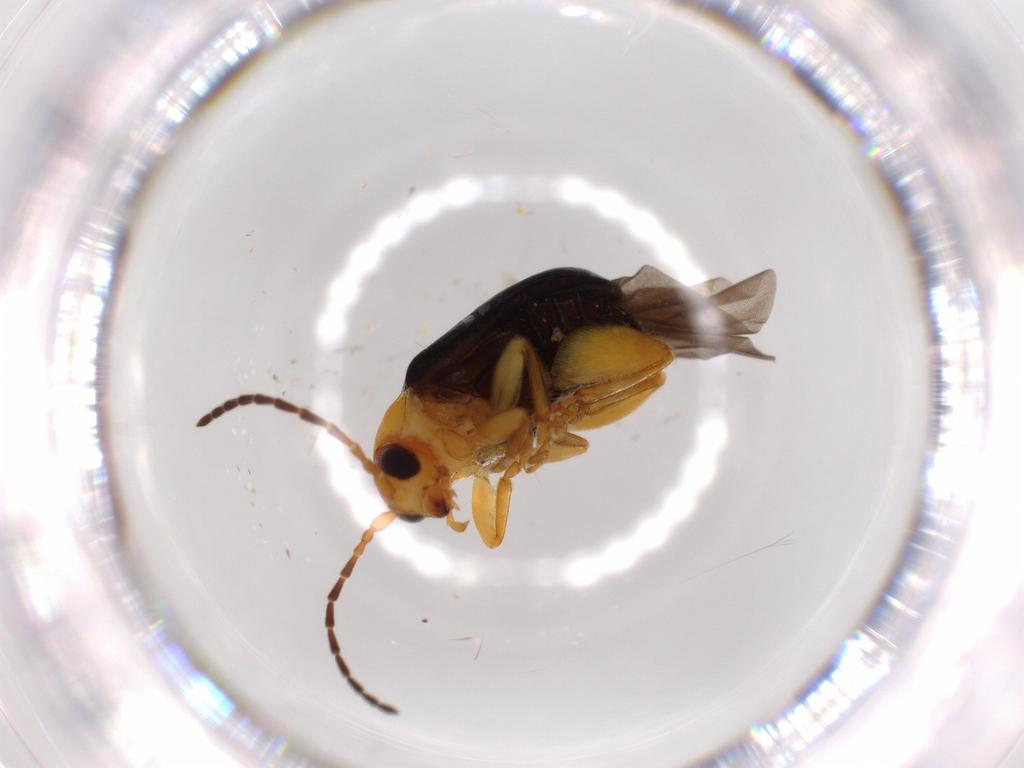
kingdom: Animalia
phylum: Arthropoda
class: Insecta
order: Coleoptera
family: Chrysomelidae
